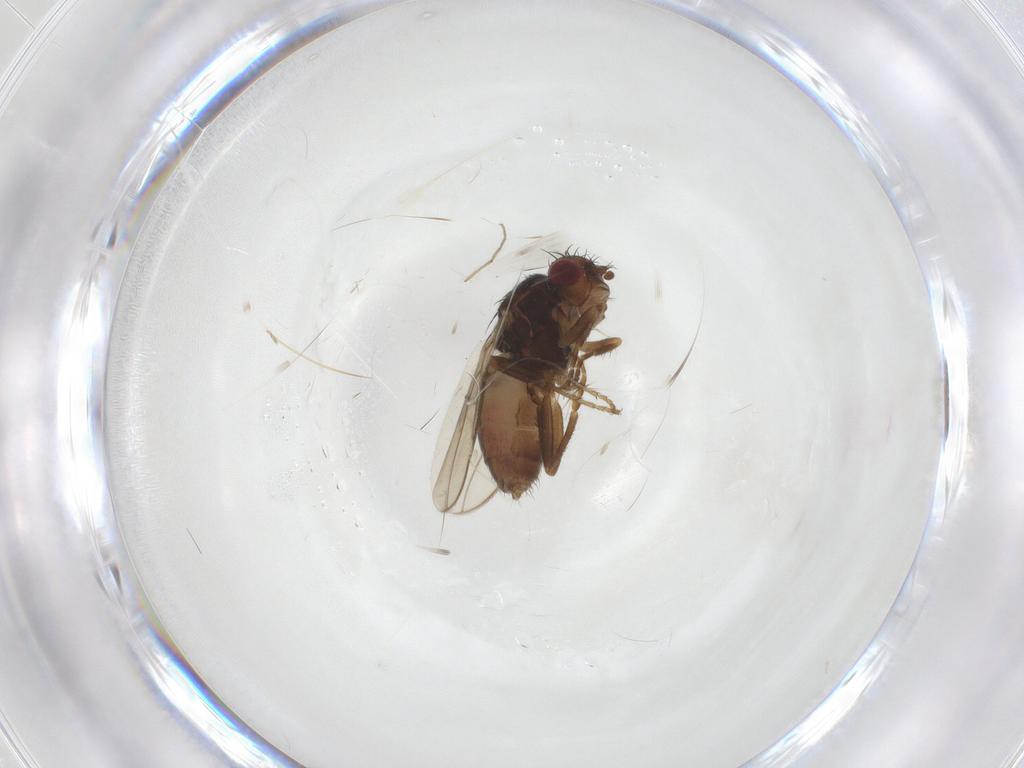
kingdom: Animalia
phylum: Arthropoda
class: Insecta
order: Diptera
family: Sphaeroceridae
